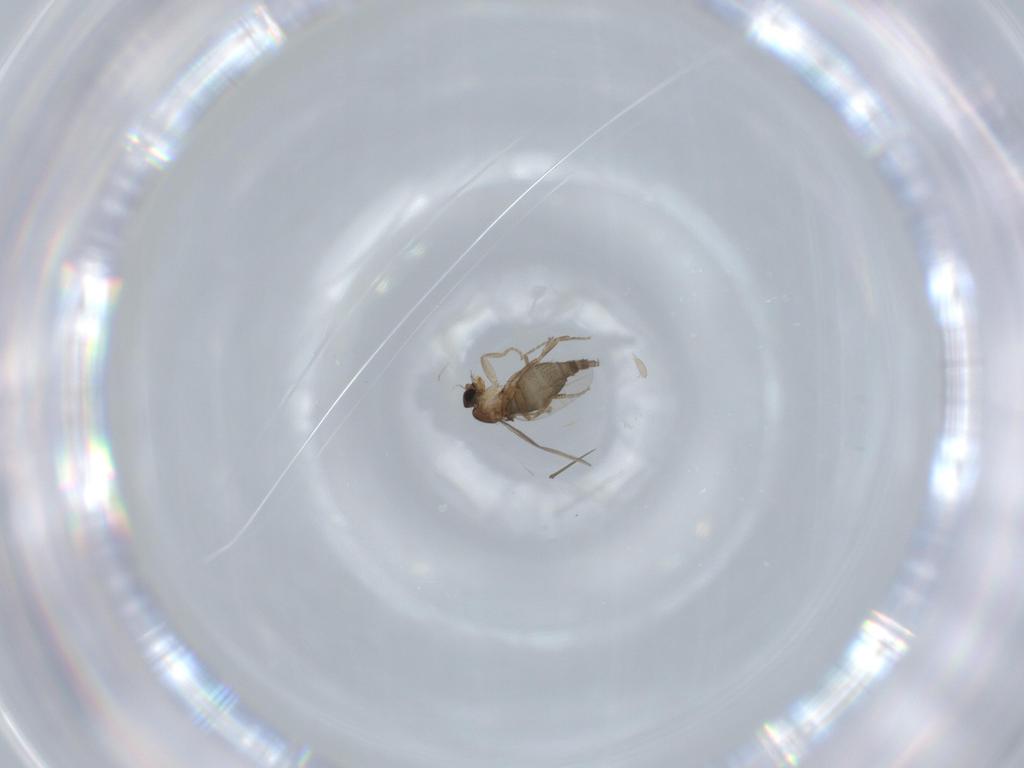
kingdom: Animalia
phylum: Arthropoda
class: Insecta
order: Diptera
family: Phoridae
